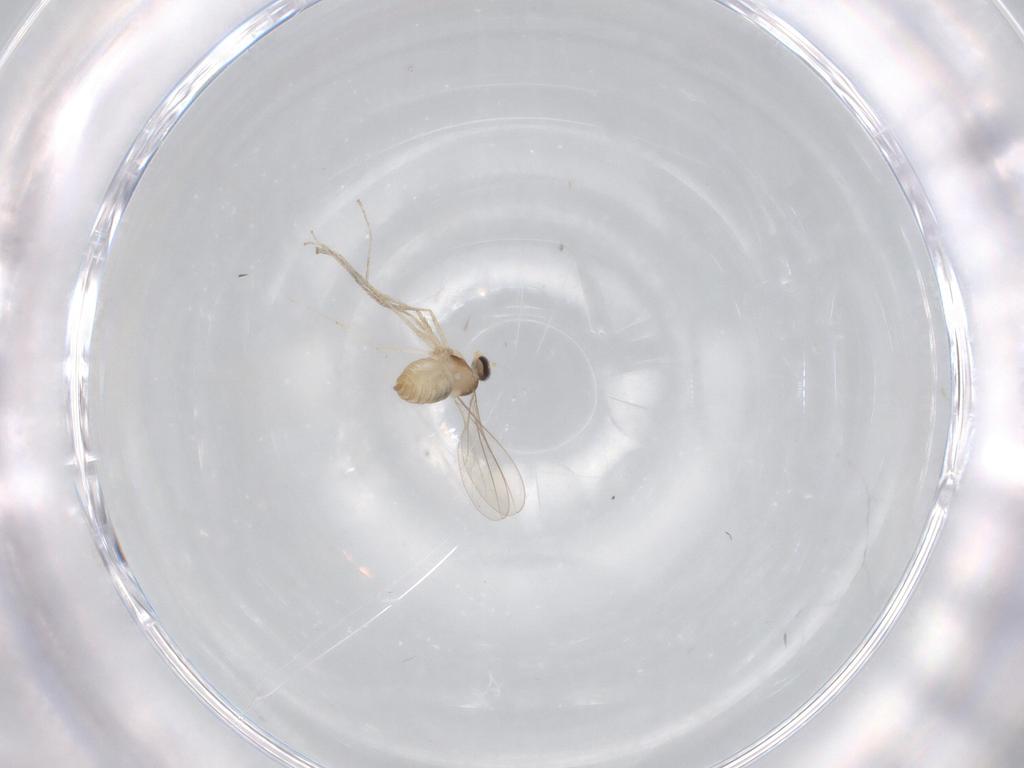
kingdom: Animalia
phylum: Arthropoda
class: Insecta
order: Diptera
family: Cecidomyiidae
